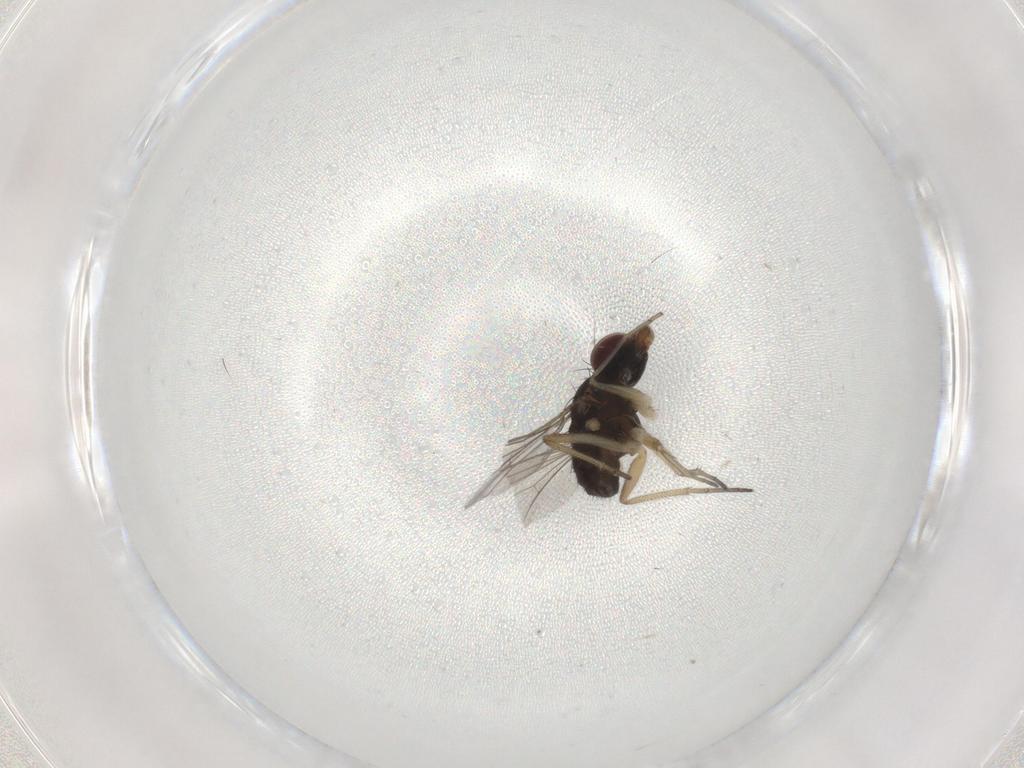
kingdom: Animalia
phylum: Arthropoda
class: Insecta
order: Diptera
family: Dolichopodidae
